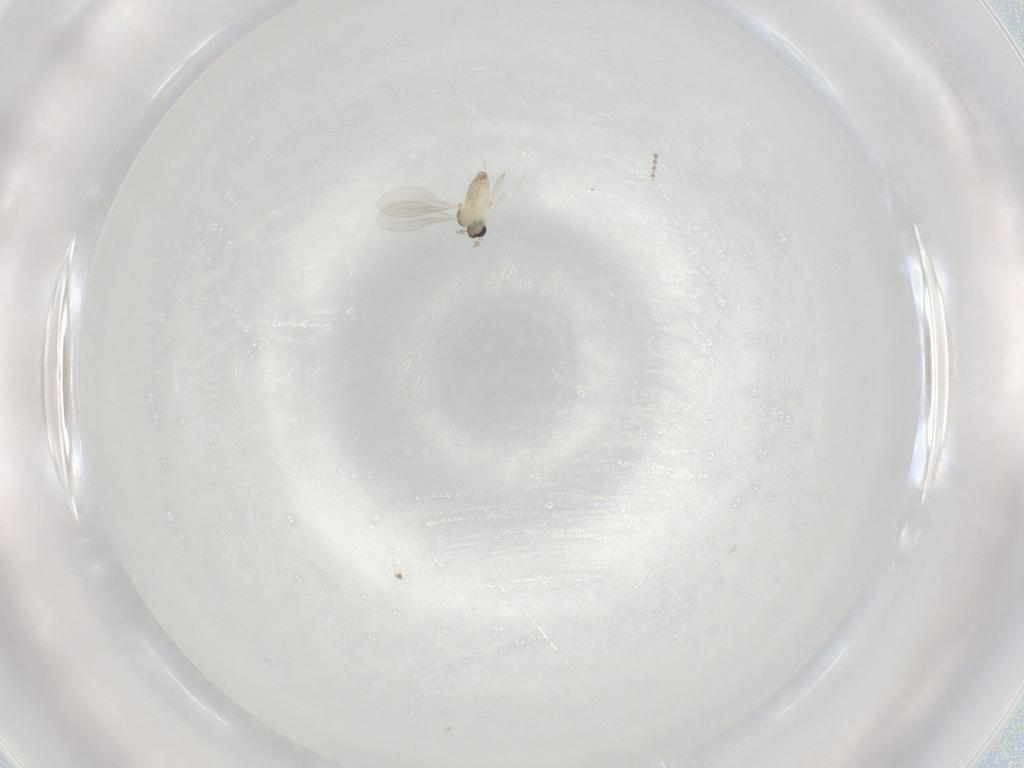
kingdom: Animalia
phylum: Arthropoda
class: Insecta
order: Diptera
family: Cecidomyiidae
